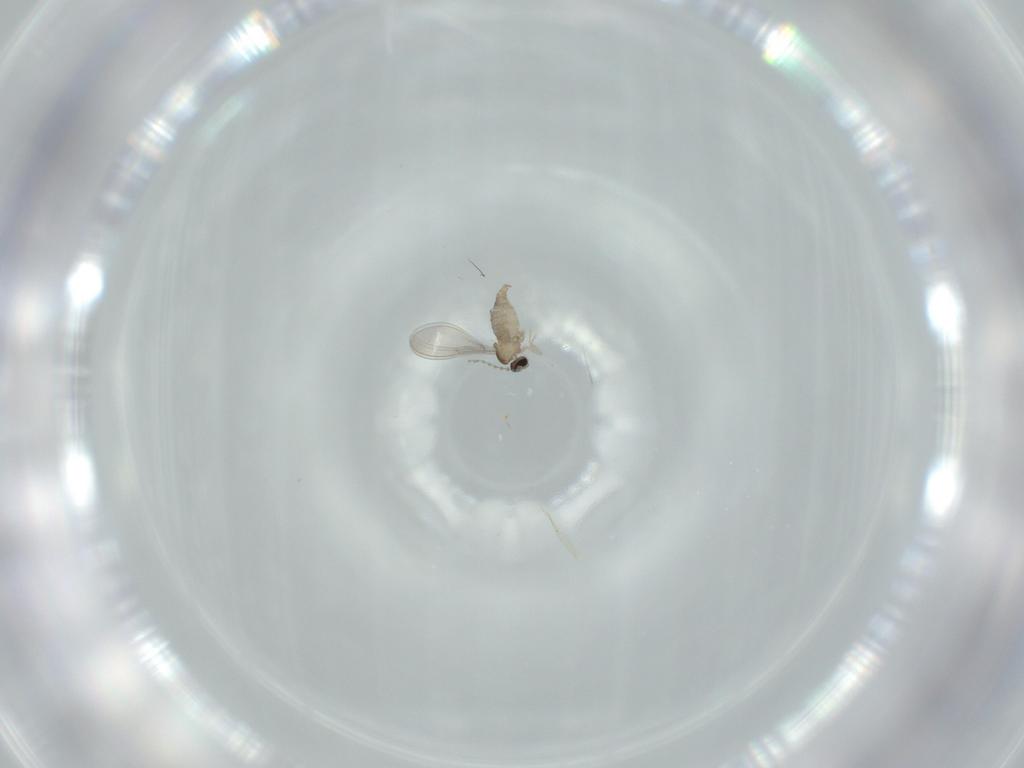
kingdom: Animalia
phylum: Arthropoda
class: Insecta
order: Diptera
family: Cecidomyiidae
